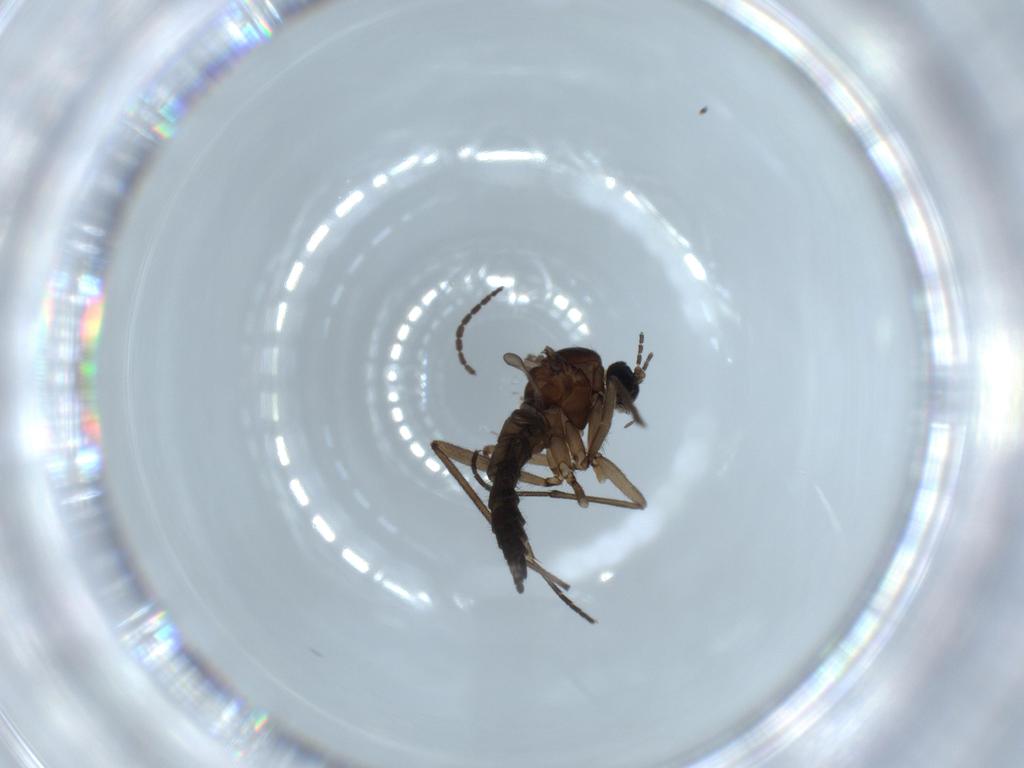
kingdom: Animalia
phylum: Arthropoda
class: Insecta
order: Diptera
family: Sciaridae
